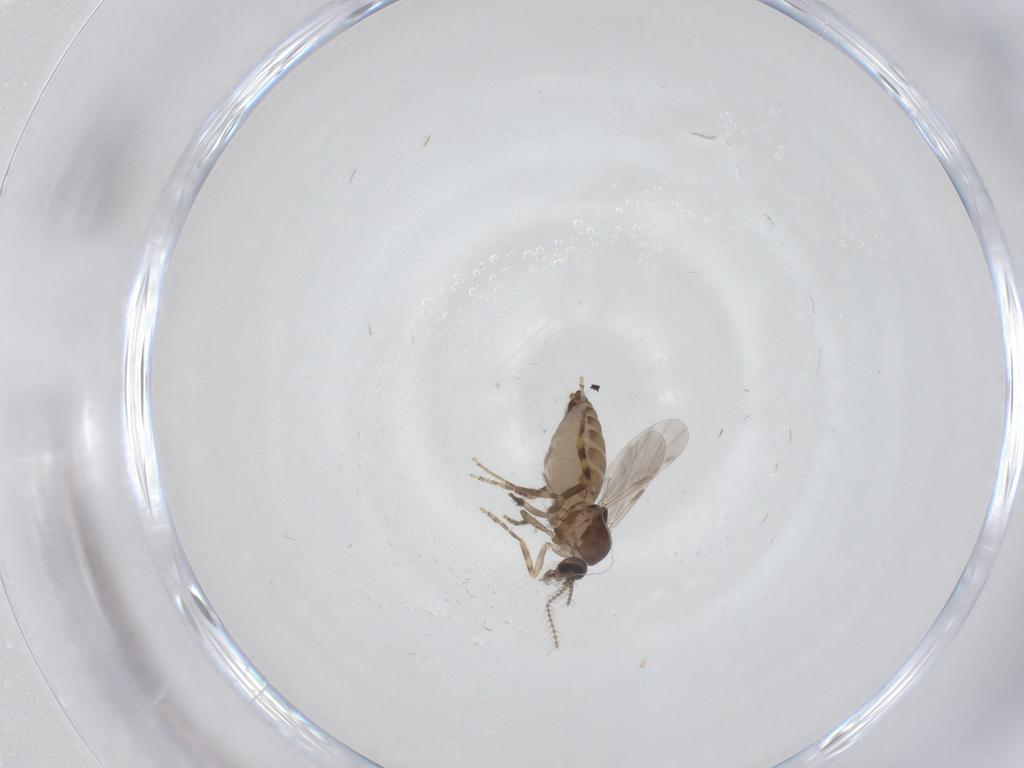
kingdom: Animalia
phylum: Arthropoda
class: Insecta
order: Diptera
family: Ceratopogonidae
